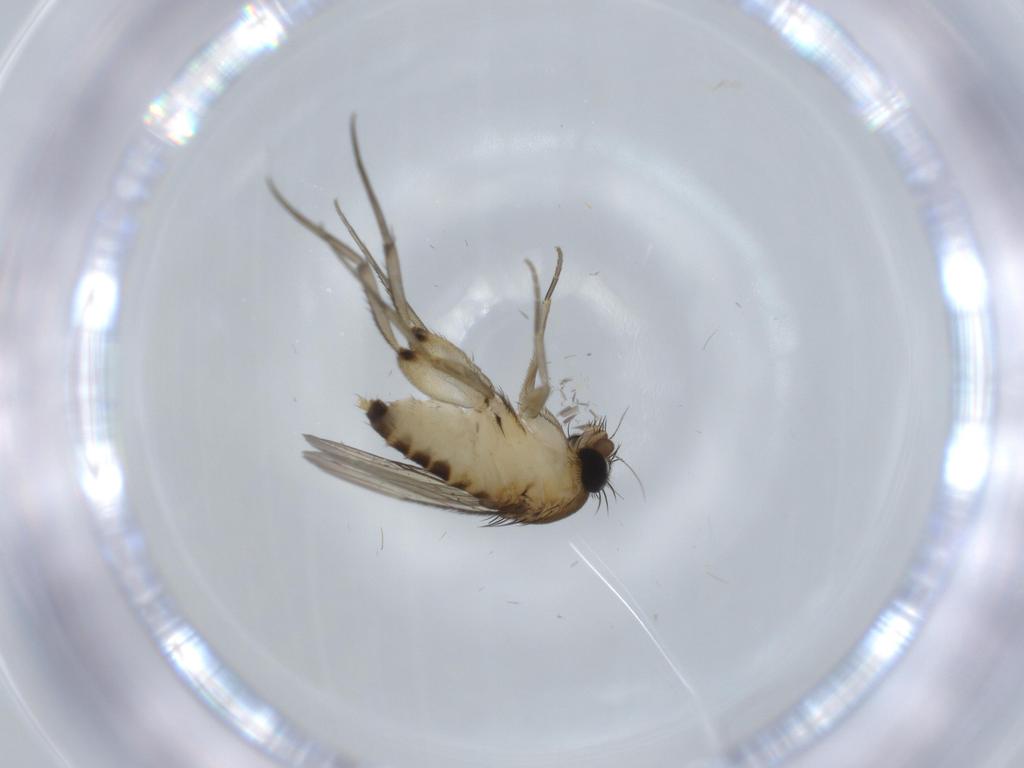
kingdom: Animalia
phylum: Arthropoda
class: Insecta
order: Diptera
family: Phoridae
